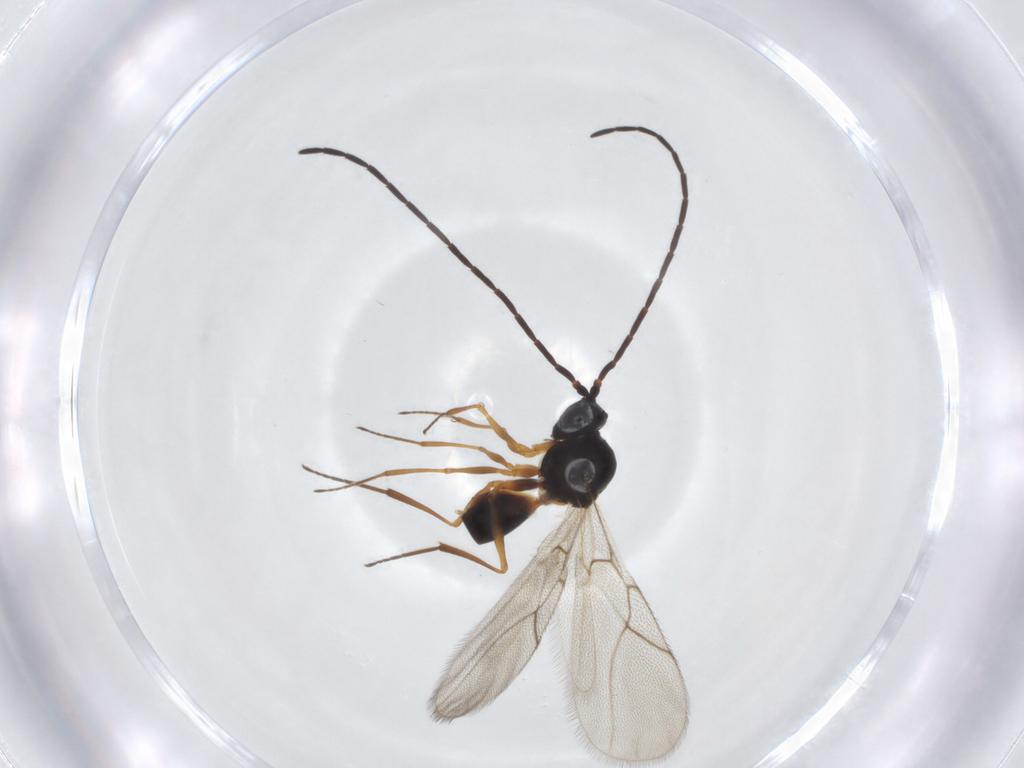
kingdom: Animalia
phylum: Arthropoda
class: Insecta
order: Hymenoptera
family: Figitidae
